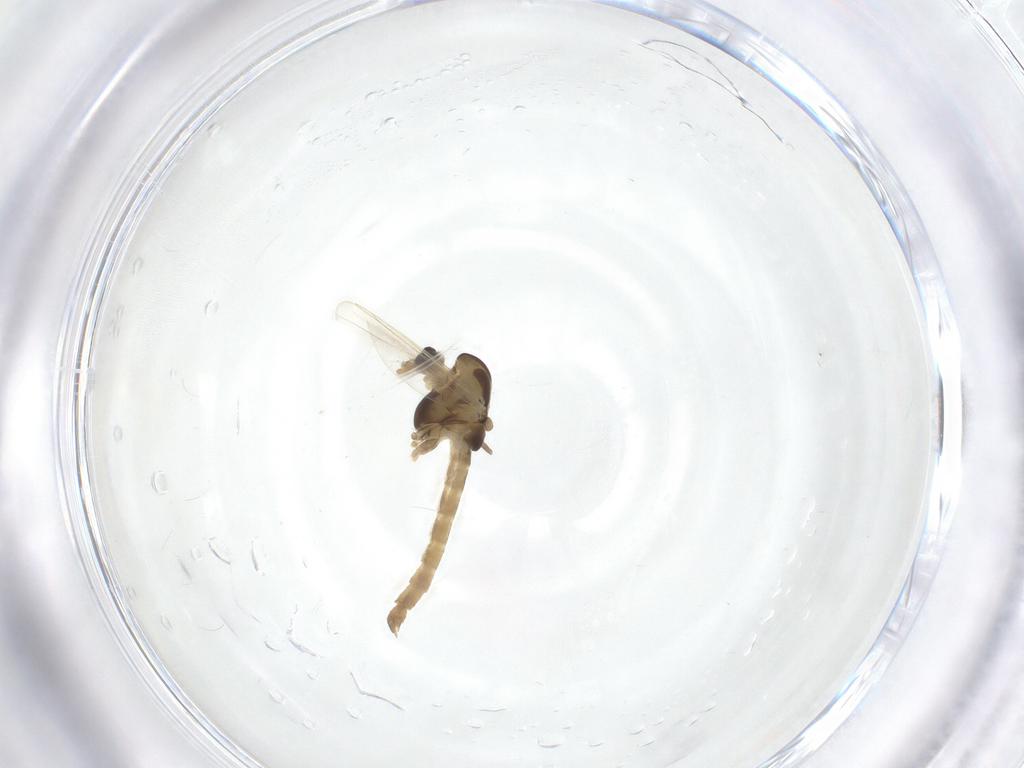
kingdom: Animalia
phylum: Arthropoda
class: Insecta
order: Diptera
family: Chironomidae
